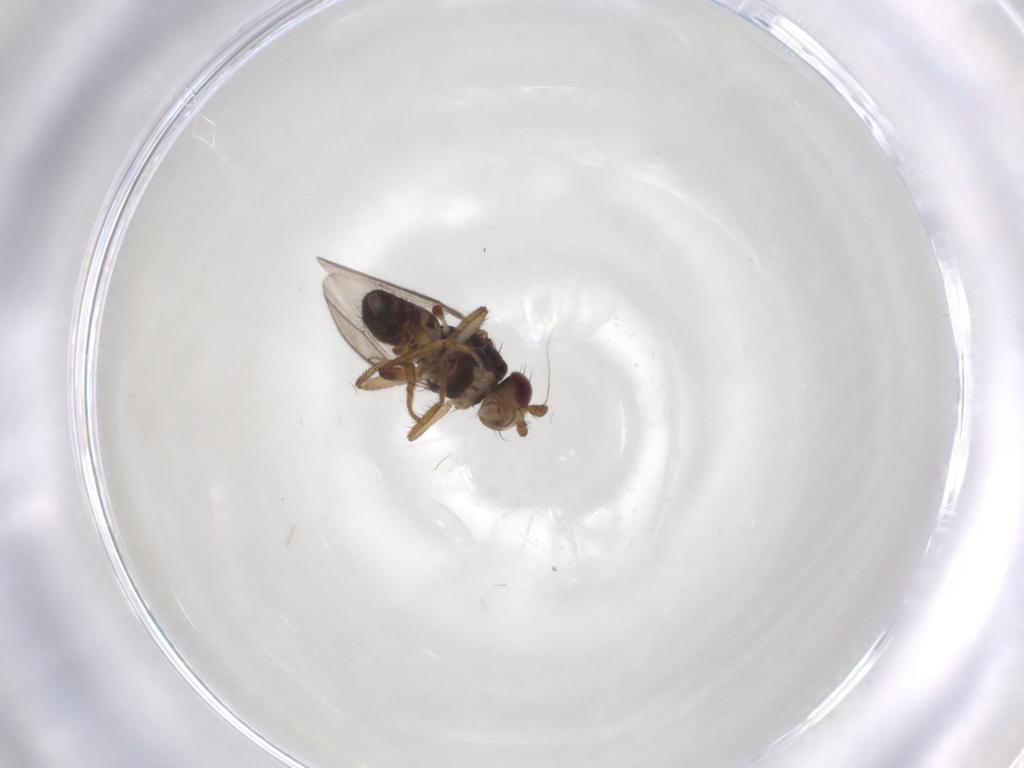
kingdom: Animalia
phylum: Arthropoda
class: Insecta
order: Diptera
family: Sphaeroceridae
